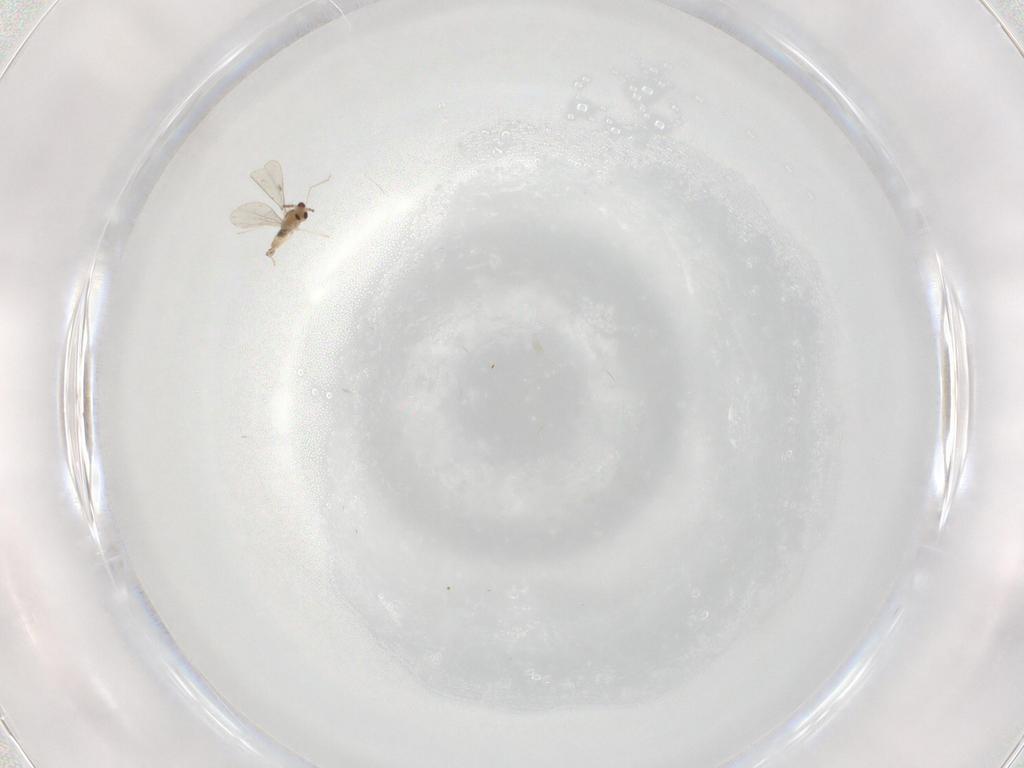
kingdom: Animalia
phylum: Arthropoda
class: Insecta
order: Diptera
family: Cecidomyiidae
